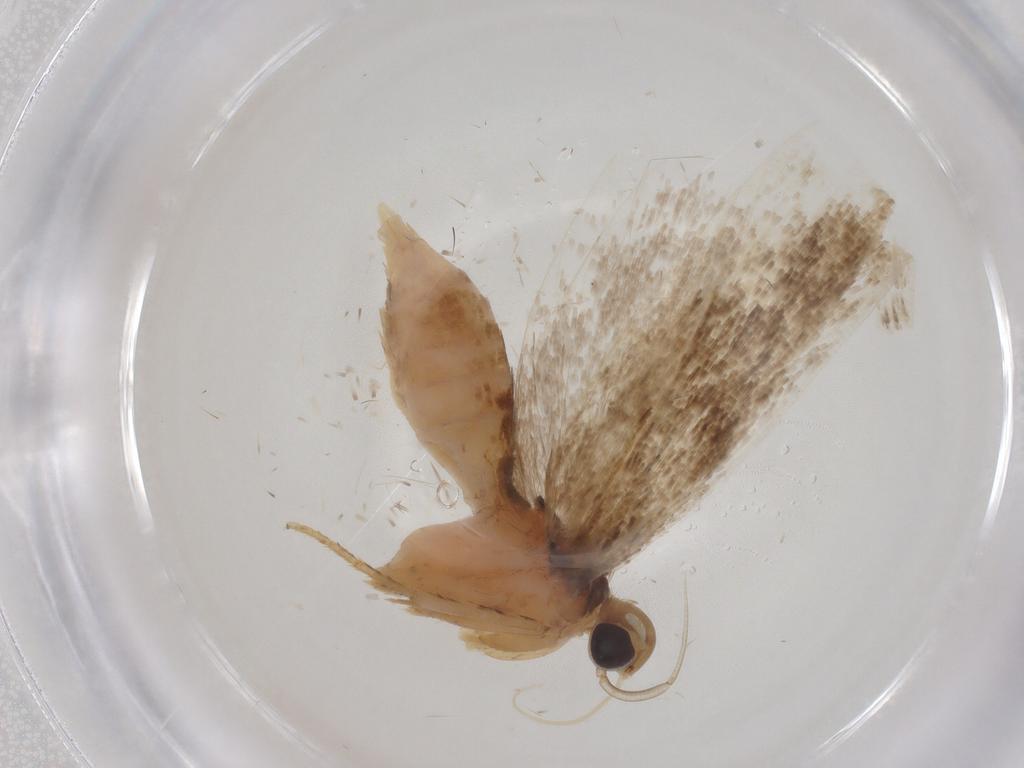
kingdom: Animalia
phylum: Arthropoda
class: Insecta
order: Lepidoptera
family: Gelechiidae
